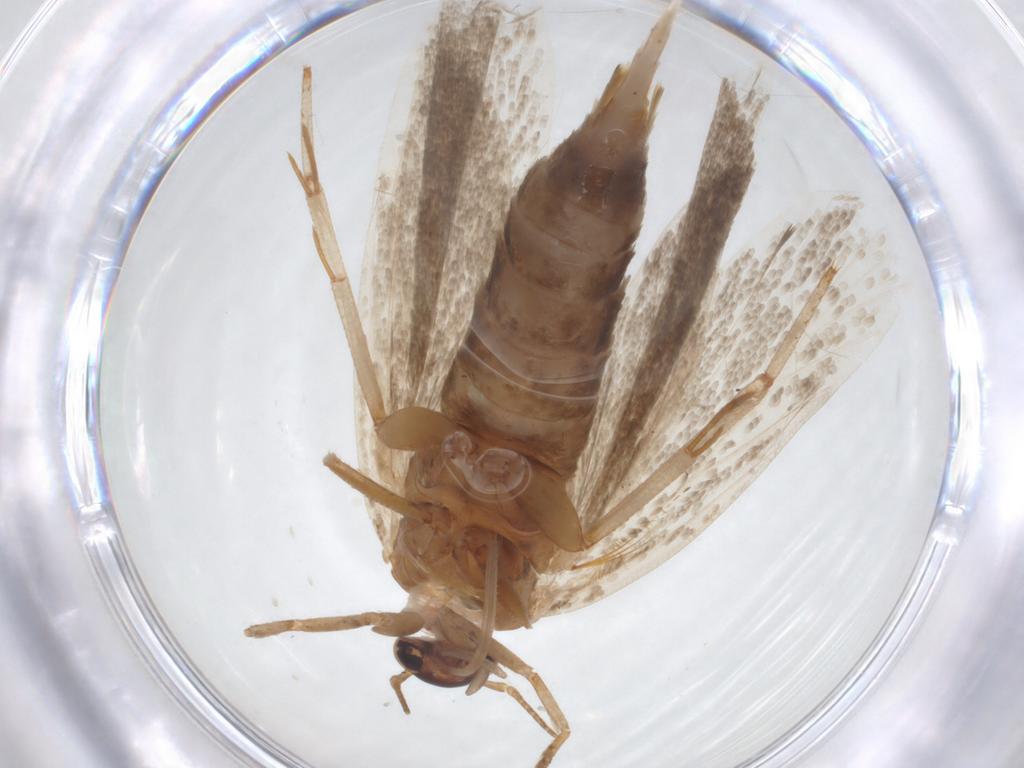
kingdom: Animalia
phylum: Arthropoda
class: Insecta
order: Lepidoptera
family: Gelechiidae
